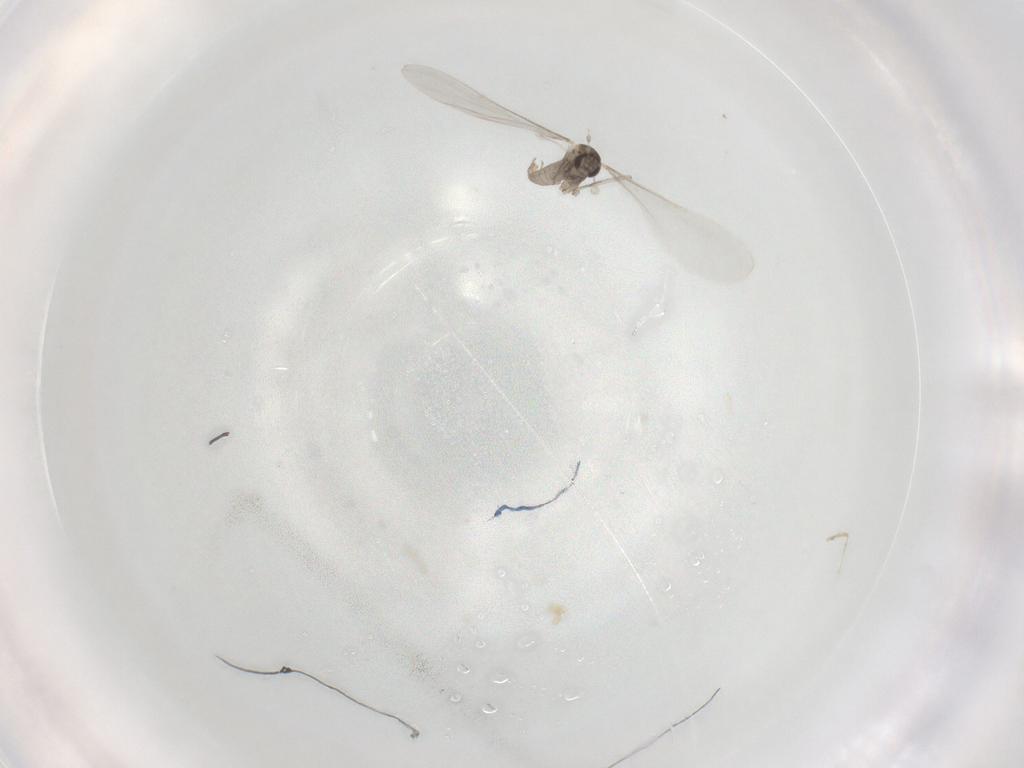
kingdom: Animalia
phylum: Arthropoda
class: Insecta
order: Diptera
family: Cecidomyiidae
